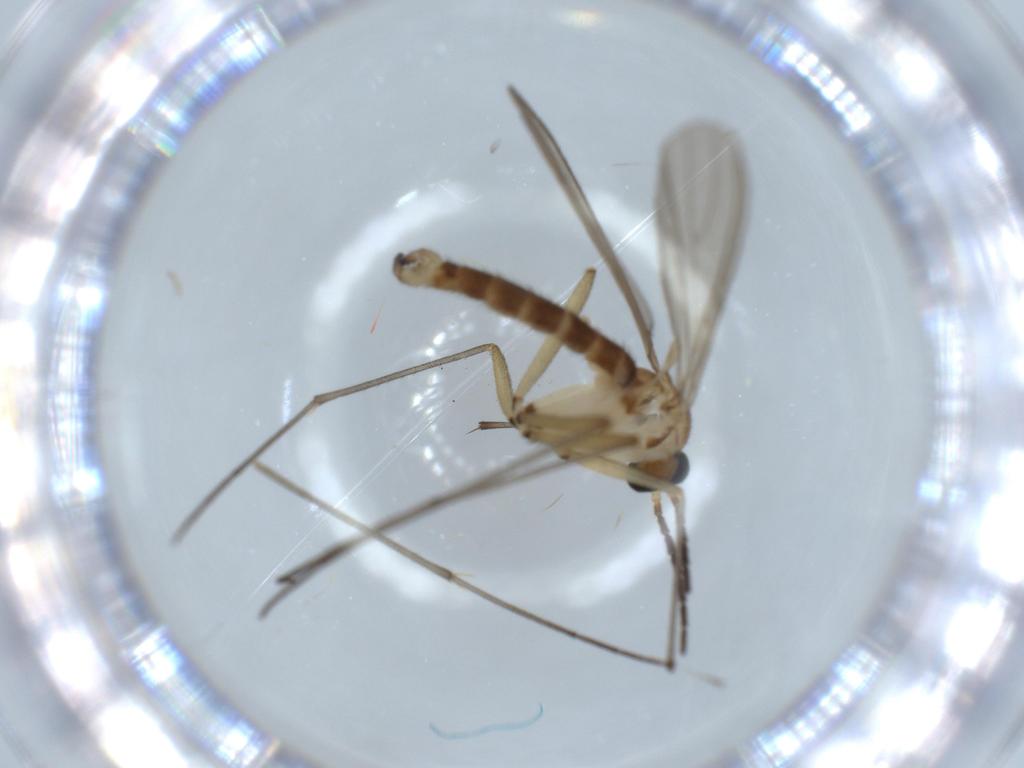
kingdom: Animalia
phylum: Arthropoda
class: Insecta
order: Diptera
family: Sciaridae
